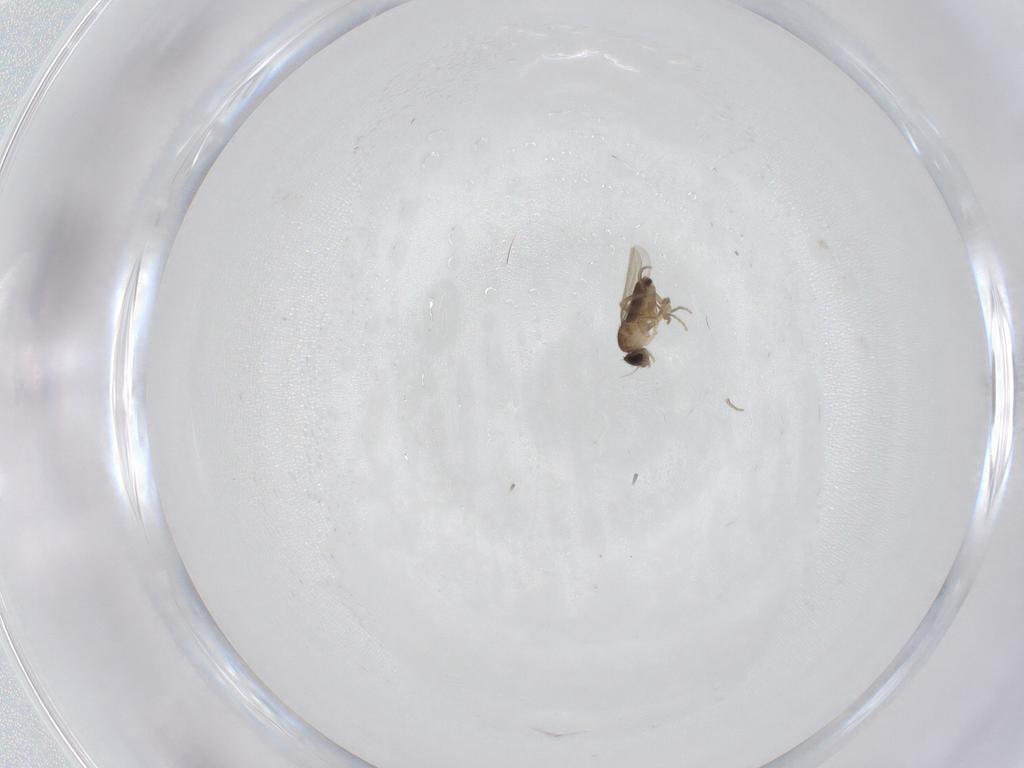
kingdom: Animalia
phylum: Arthropoda
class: Insecta
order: Diptera
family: Phoridae
